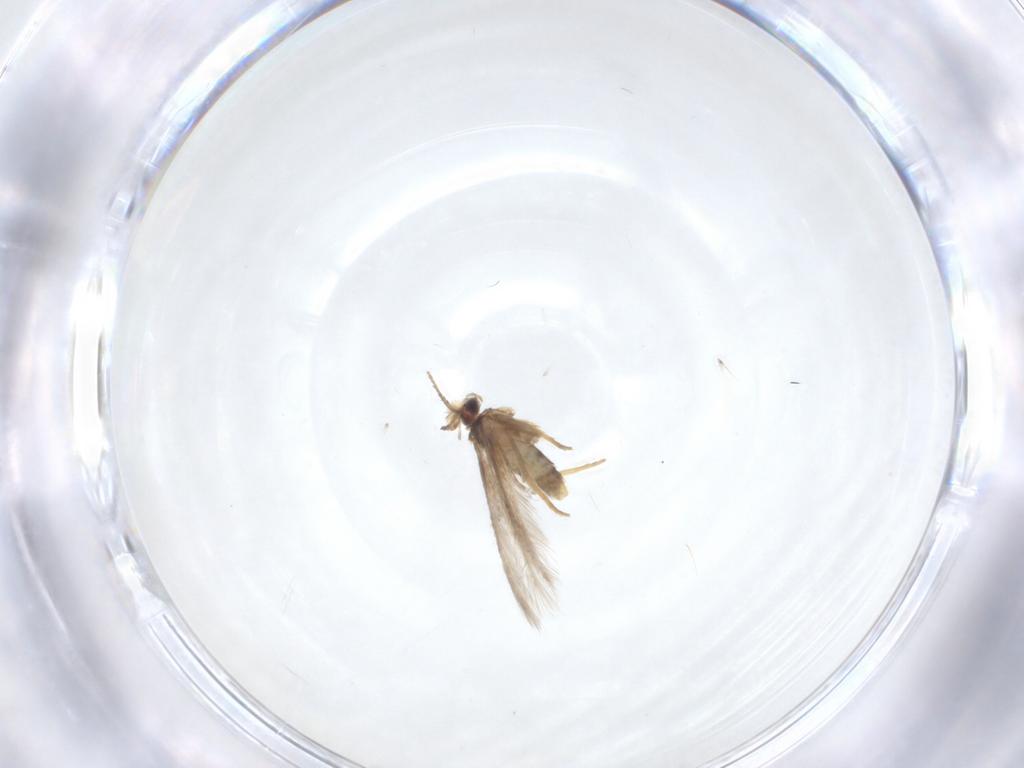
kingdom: Animalia
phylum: Arthropoda
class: Insecta
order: Lepidoptera
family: Nepticulidae
